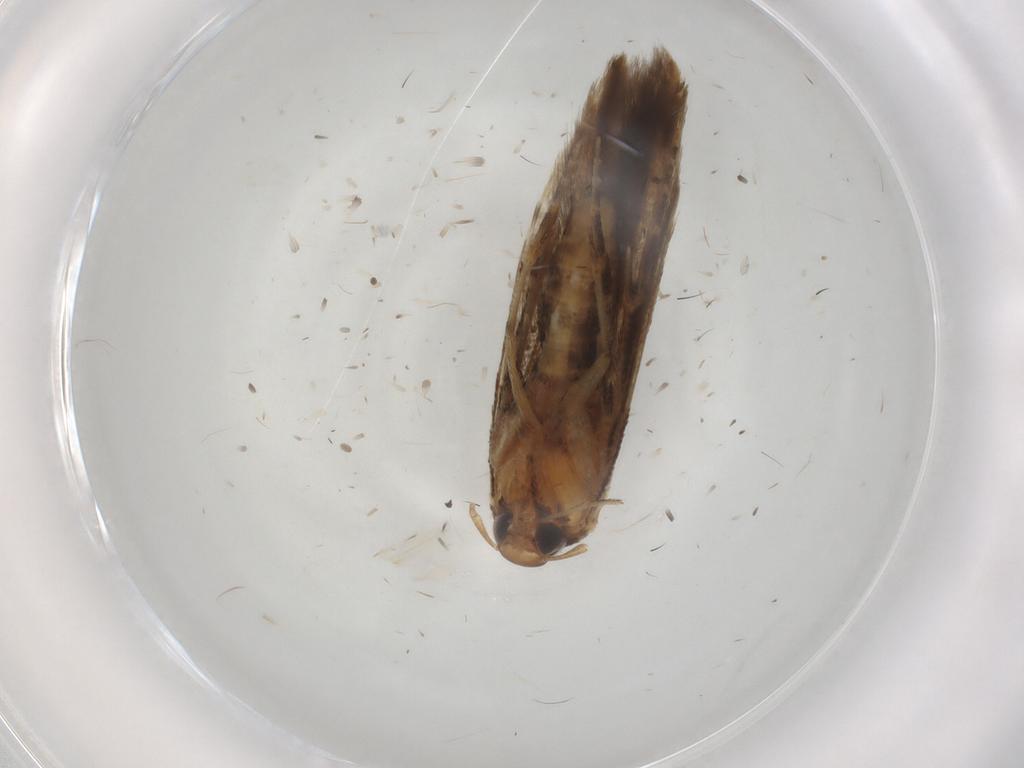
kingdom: Animalia
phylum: Arthropoda
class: Insecta
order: Lepidoptera
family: Cosmopterigidae
